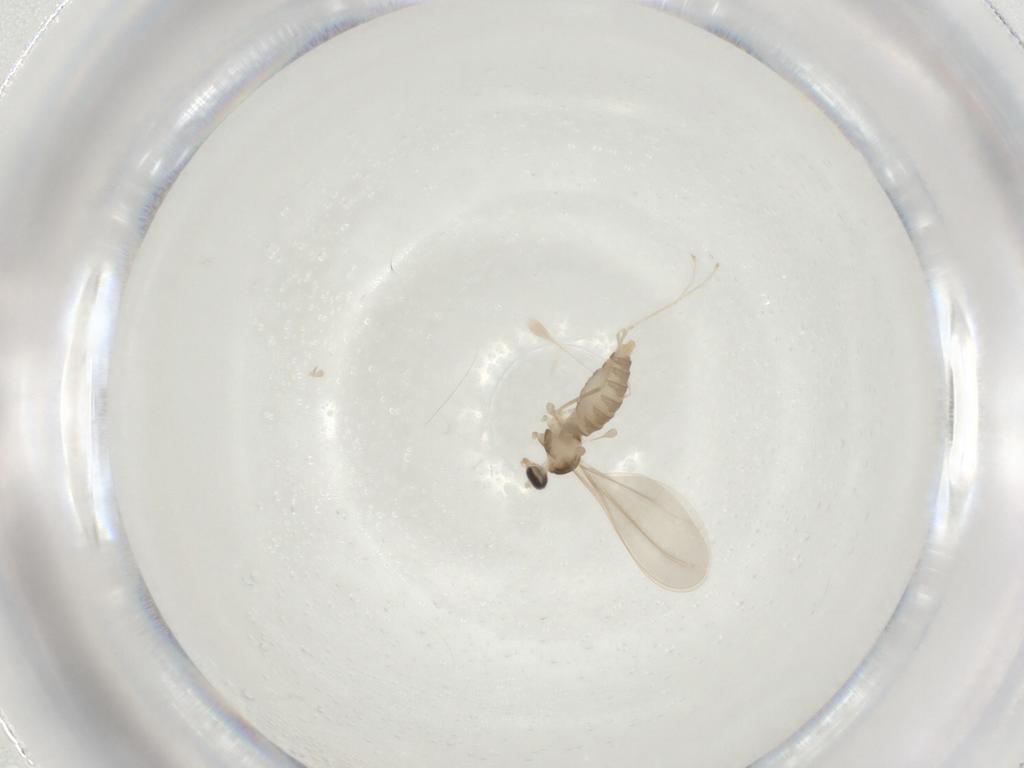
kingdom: Animalia
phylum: Arthropoda
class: Insecta
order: Diptera
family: Cecidomyiidae
